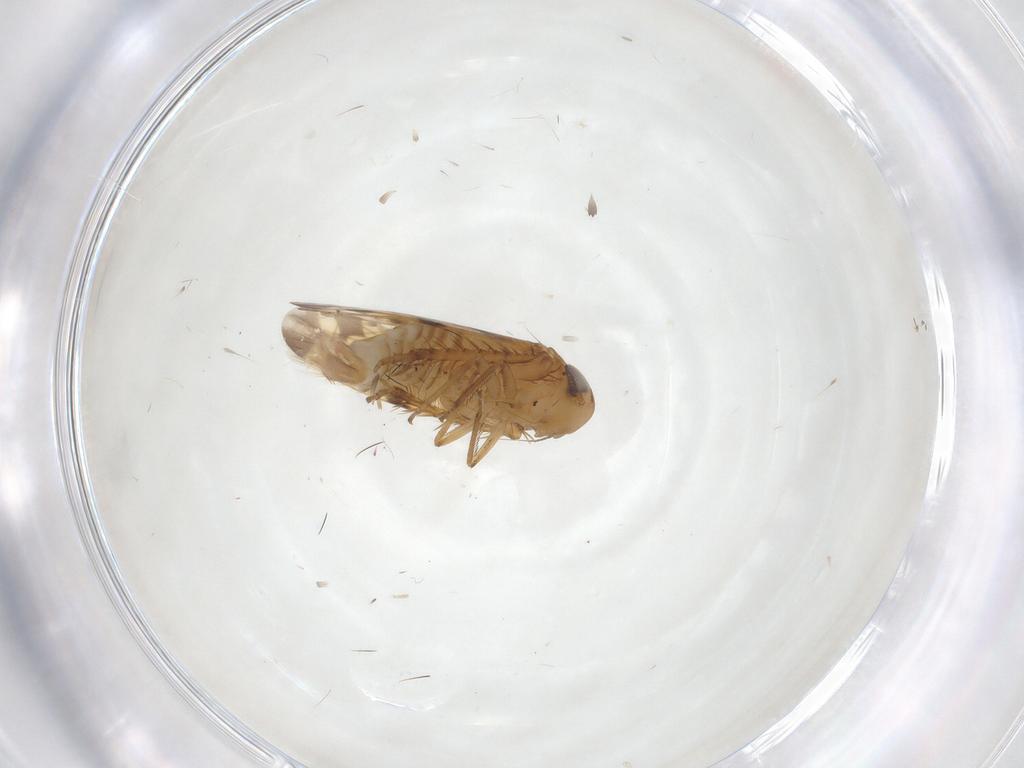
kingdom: Animalia
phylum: Arthropoda
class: Insecta
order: Hemiptera
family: Cicadellidae
